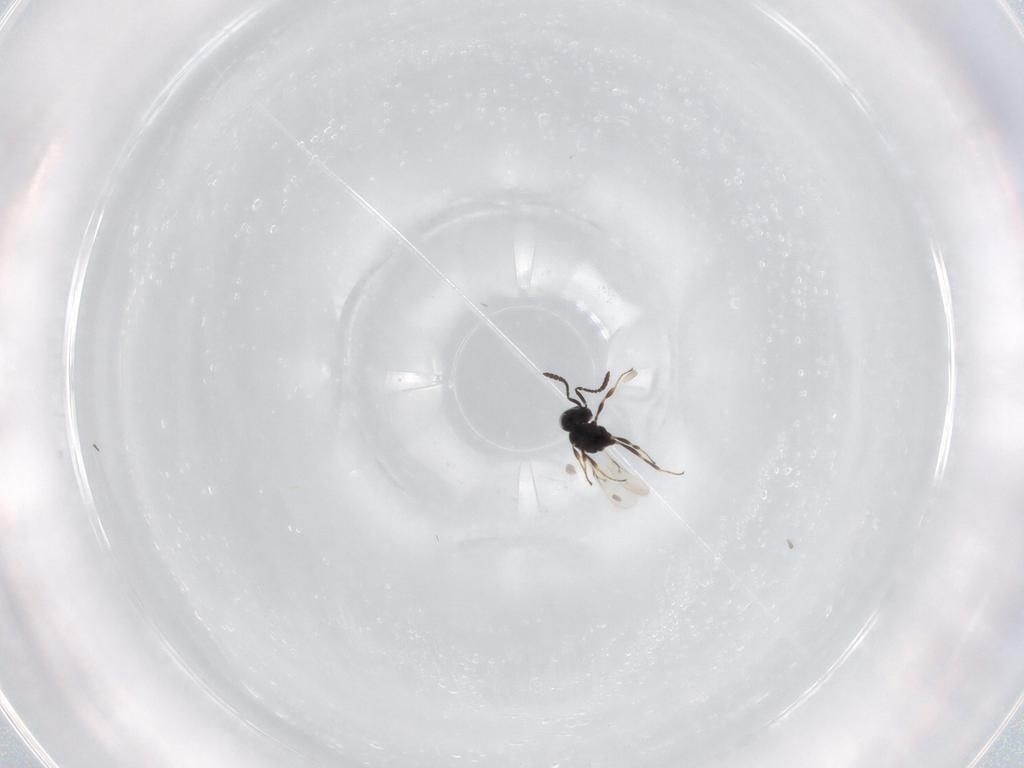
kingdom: Animalia
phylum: Arthropoda
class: Insecta
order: Hymenoptera
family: Scelionidae
